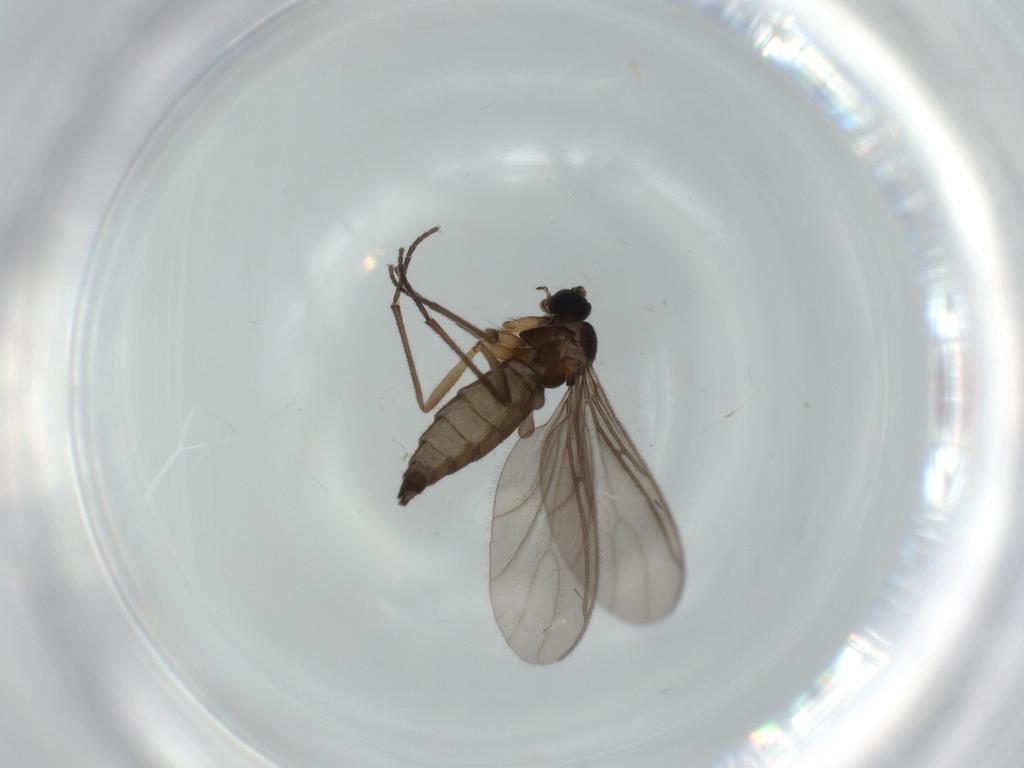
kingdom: Animalia
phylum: Arthropoda
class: Insecta
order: Diptera
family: Sciaridae
